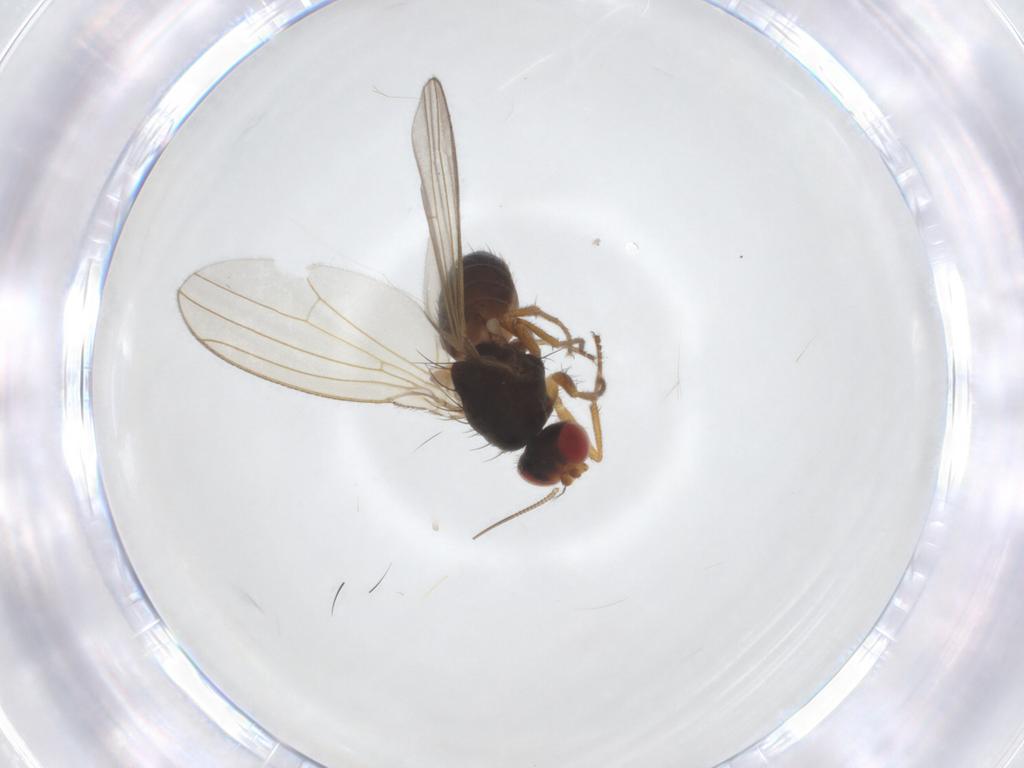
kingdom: Animalia
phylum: Arthropoda
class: Insecta
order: Diptera
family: Drosophilidae
